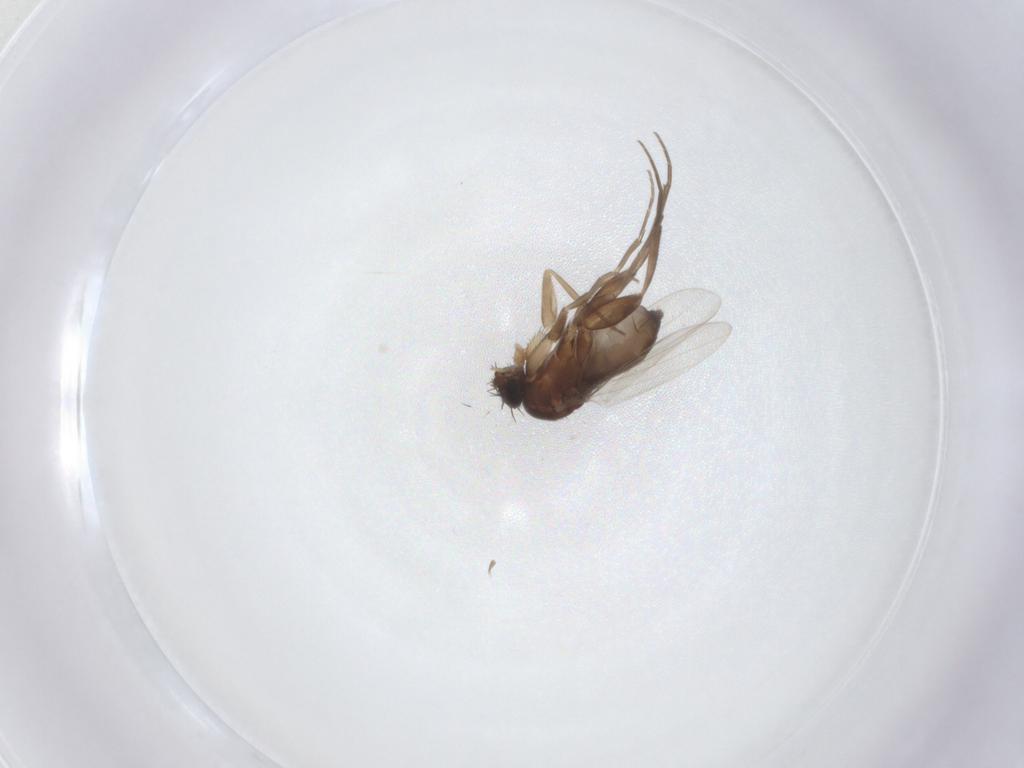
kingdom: Animalia
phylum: Arthropoda
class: Insecta
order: Diptera
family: Phoridae
